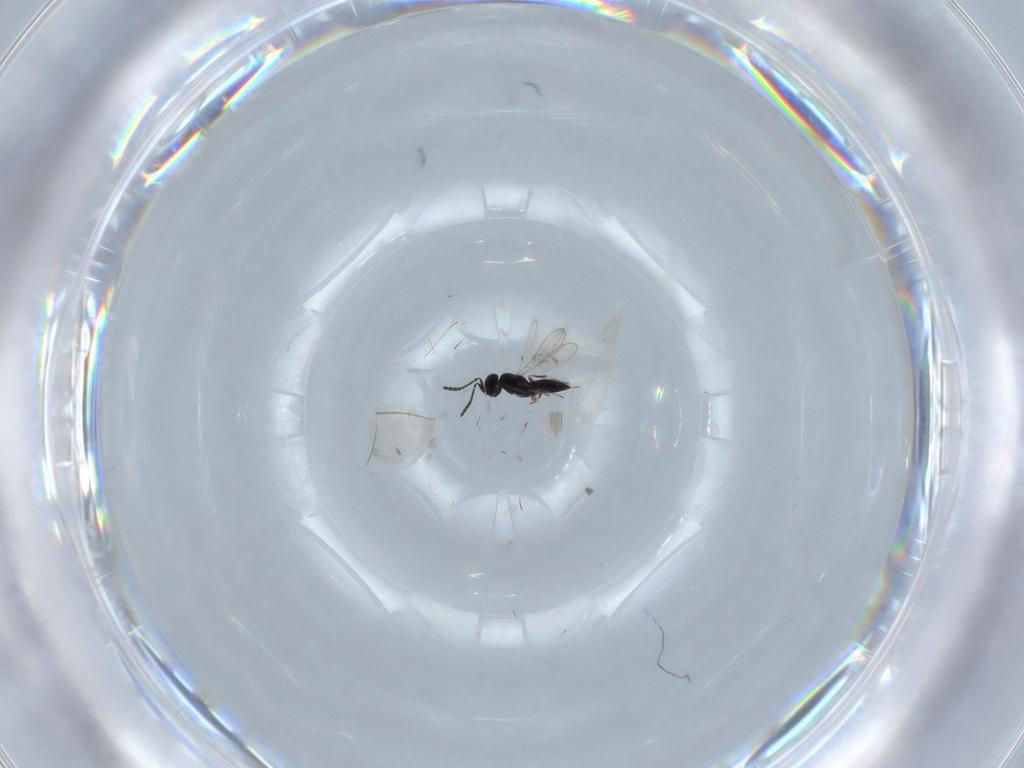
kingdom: Animalia
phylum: Arthropoda
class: Insecta
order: Hymenoptera
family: Scelionidae
